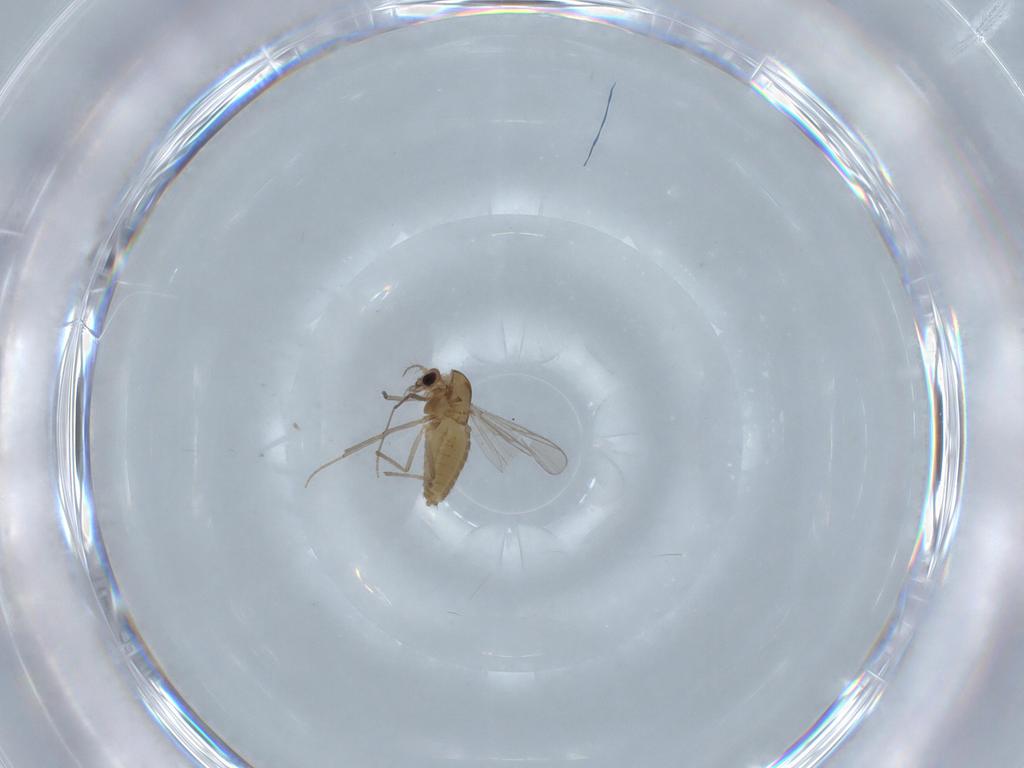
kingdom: Animalia
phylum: Arthropoda
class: Insecta
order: Diptera
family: Chironomidae
